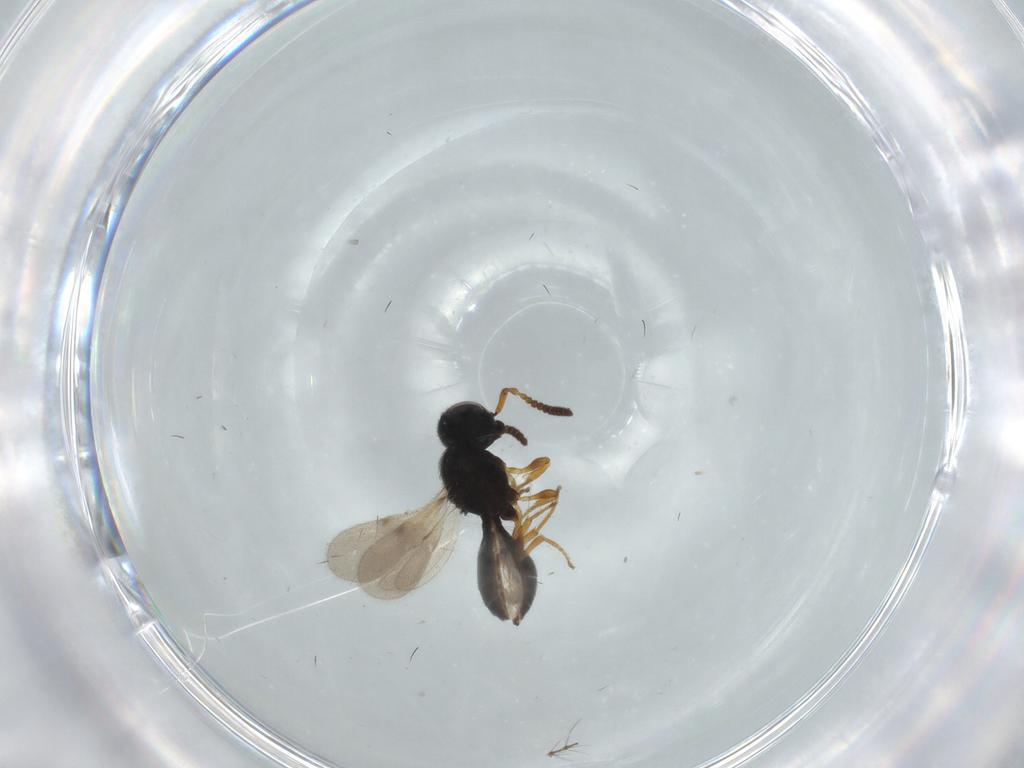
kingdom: Animalia
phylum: Arthropoda
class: Insecta
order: Hymenoptera
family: Scelionidae
